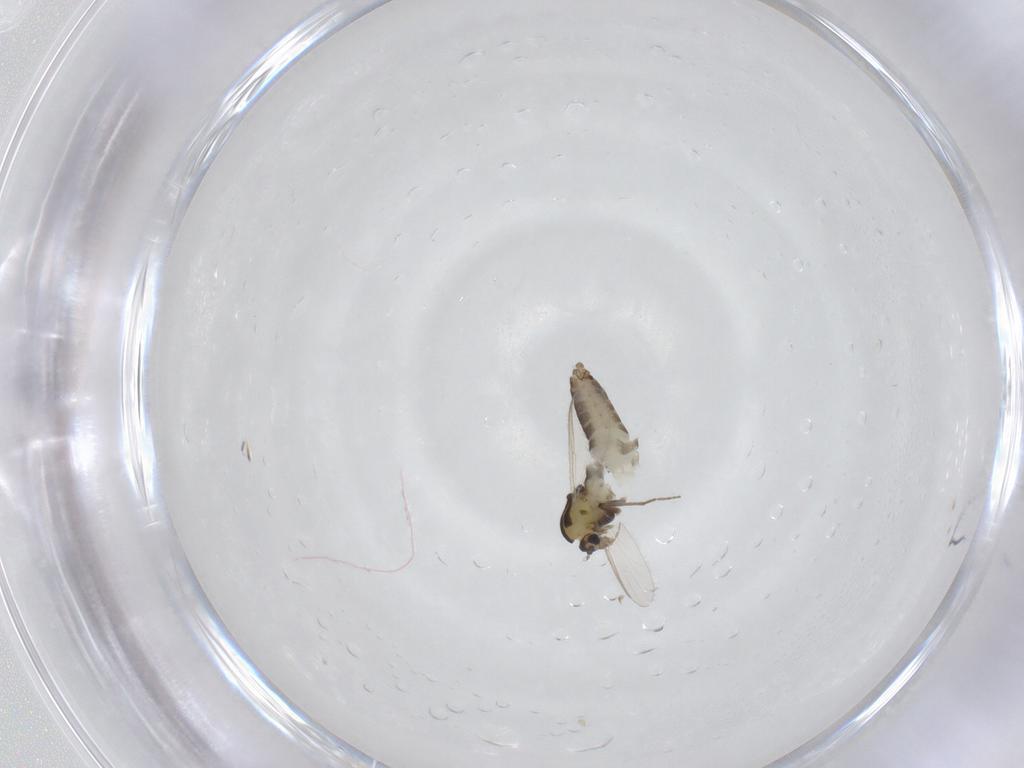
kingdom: Animalia
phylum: Arthropoda
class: Insecta
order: Diptera
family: Chironomidae
